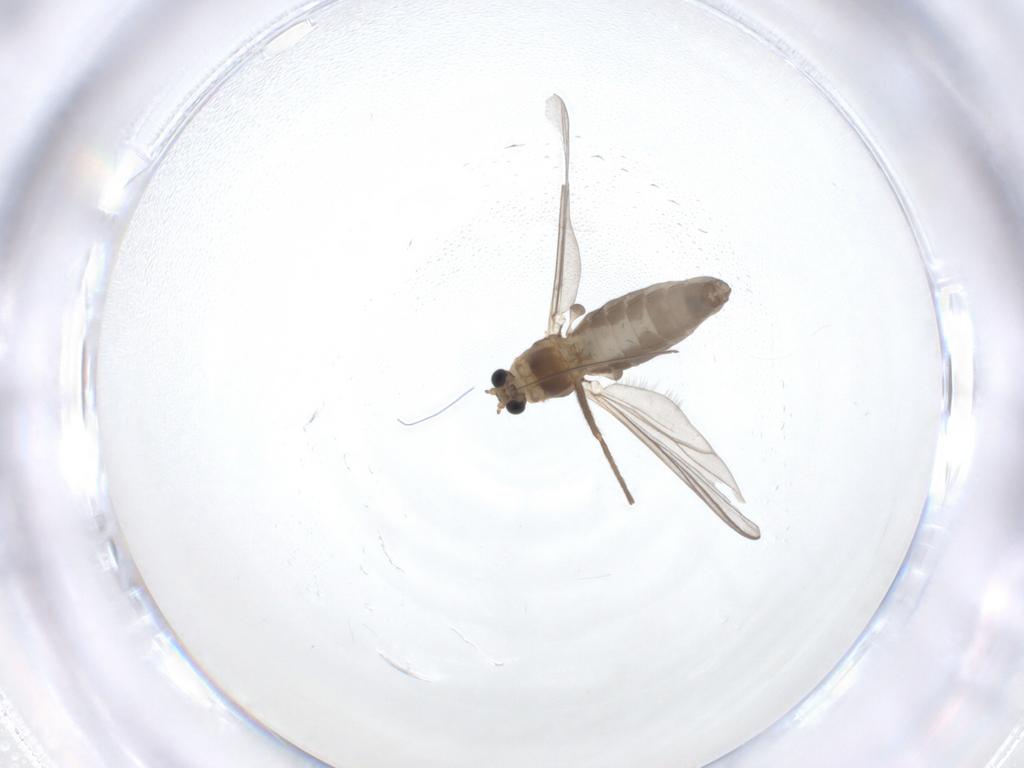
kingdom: Animalia
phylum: Arthropoda
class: Insecta
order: Diptera
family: Chironomidae
